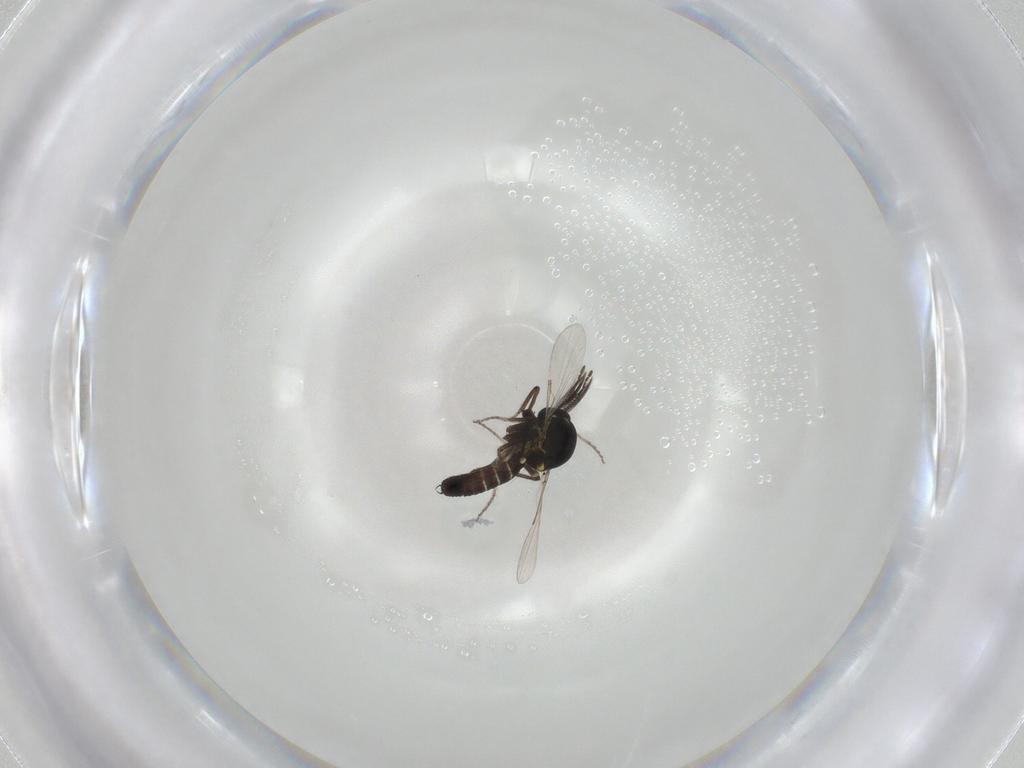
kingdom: Animalia
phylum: Arthropoda
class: Insecta
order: Diptera
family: Ceratopogonidae
